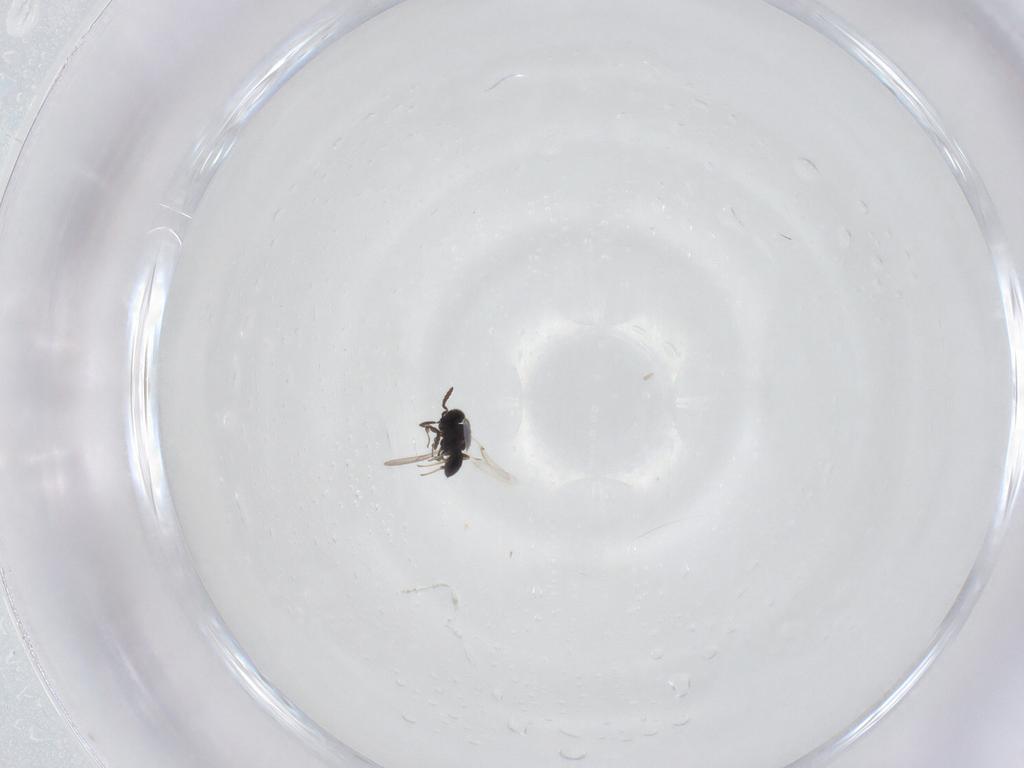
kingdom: Animalia
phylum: Arthropoda
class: Insecta
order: Hymenoptera
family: Scelionidae
